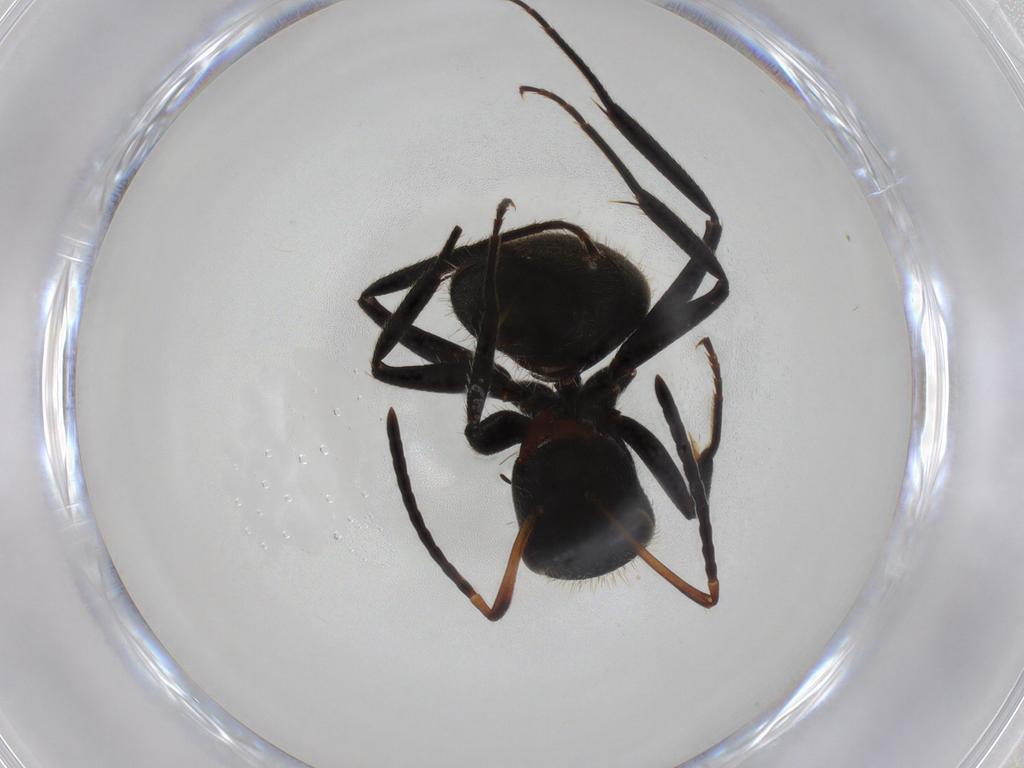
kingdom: Animalia
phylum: Arthropoda
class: Insecta
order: Hymenoptera
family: Formicidae
